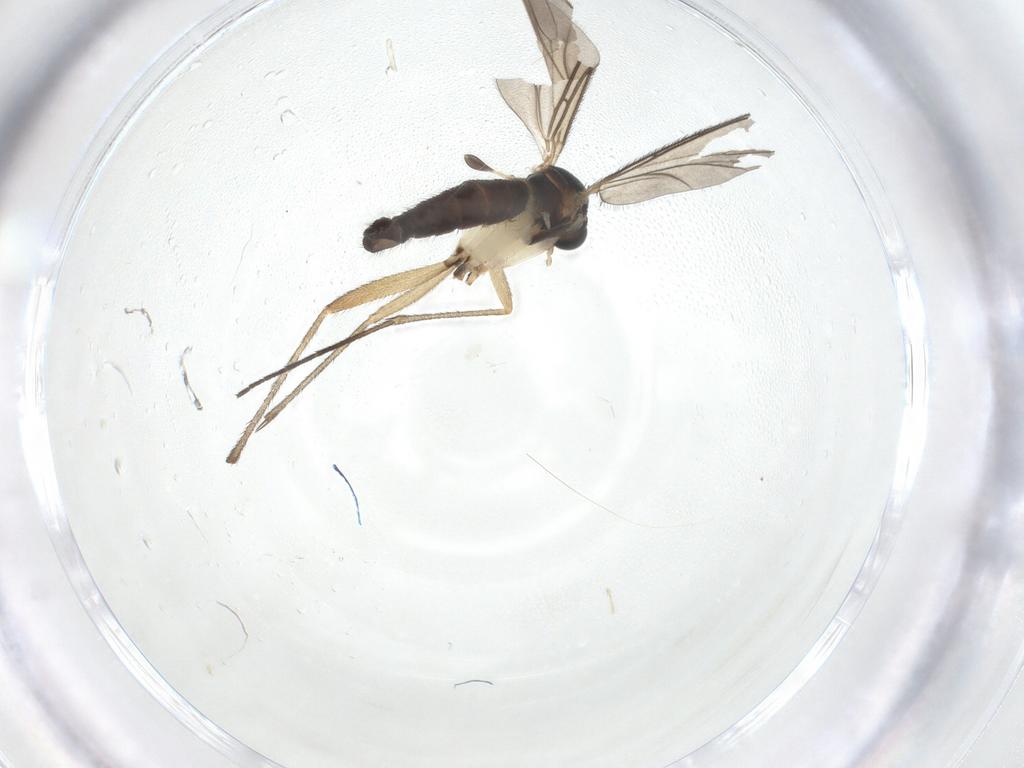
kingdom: Animalia
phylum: Arthropoda
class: Insecta
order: Diptera
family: Sciaridae
